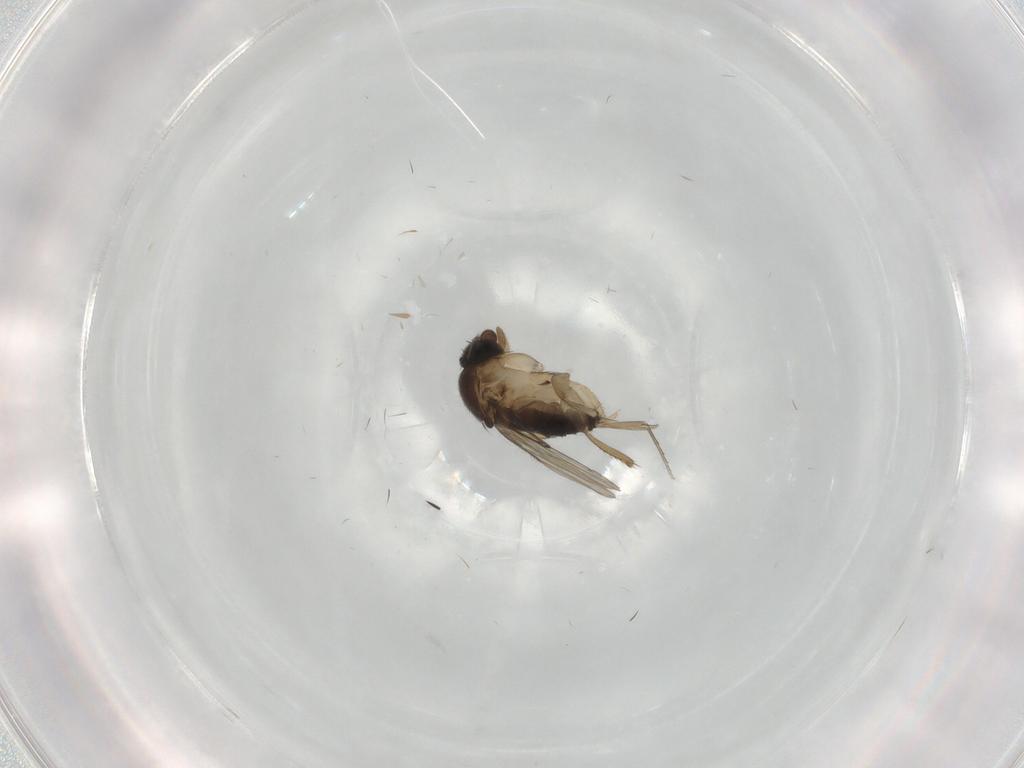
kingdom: Animalia
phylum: Arthropoda
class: Insecta
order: Diptera
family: Phoridae
